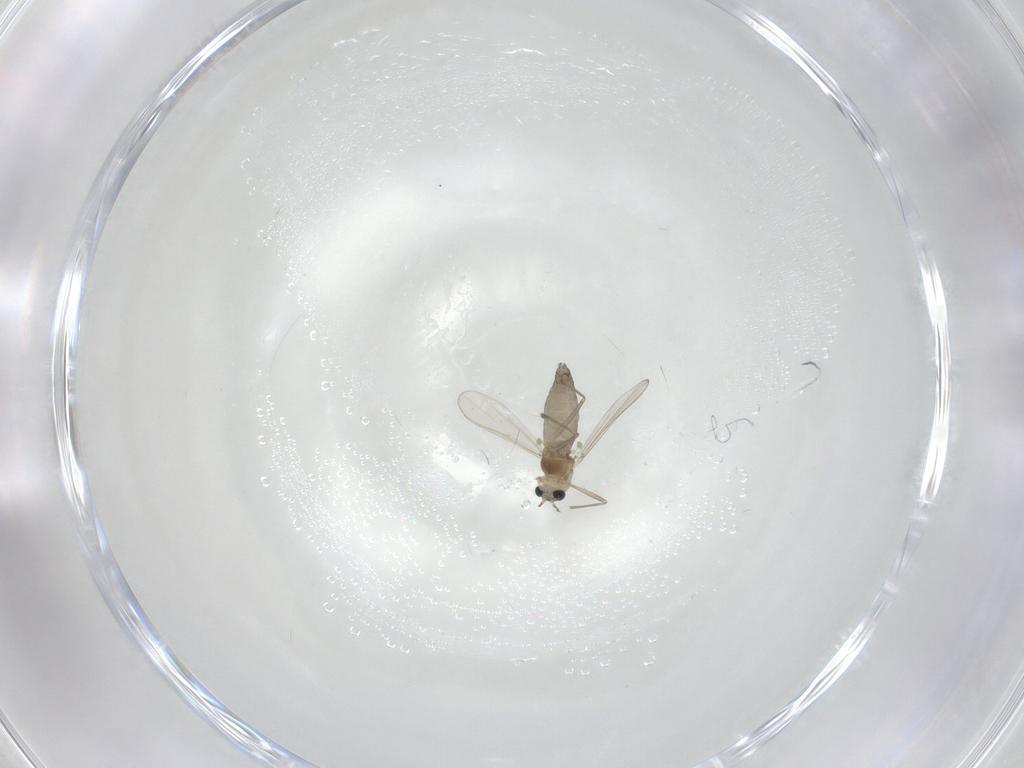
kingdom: Animalia
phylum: Arthropoda
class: Insecta
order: Diptera
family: Chironomidae
